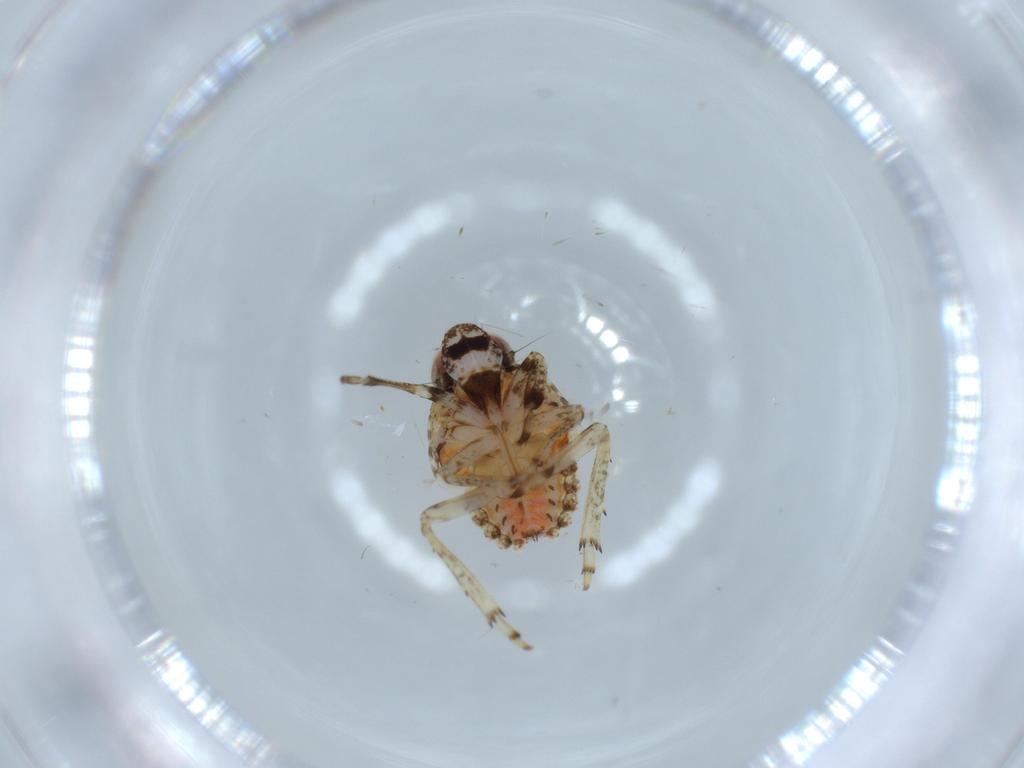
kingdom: Animalia
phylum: Arthropoda
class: Insecta
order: Hemiptera
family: Issidae
